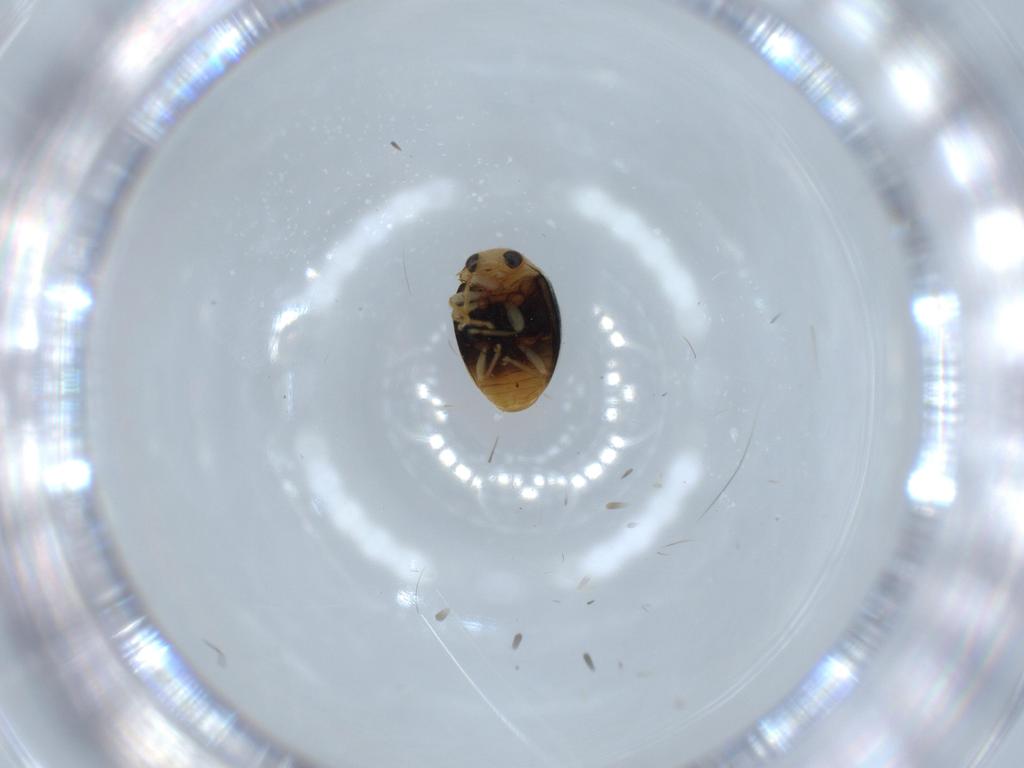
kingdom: Animalia
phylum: Arthropoda
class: Insecta
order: Coleoptera
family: Coccinellidae
